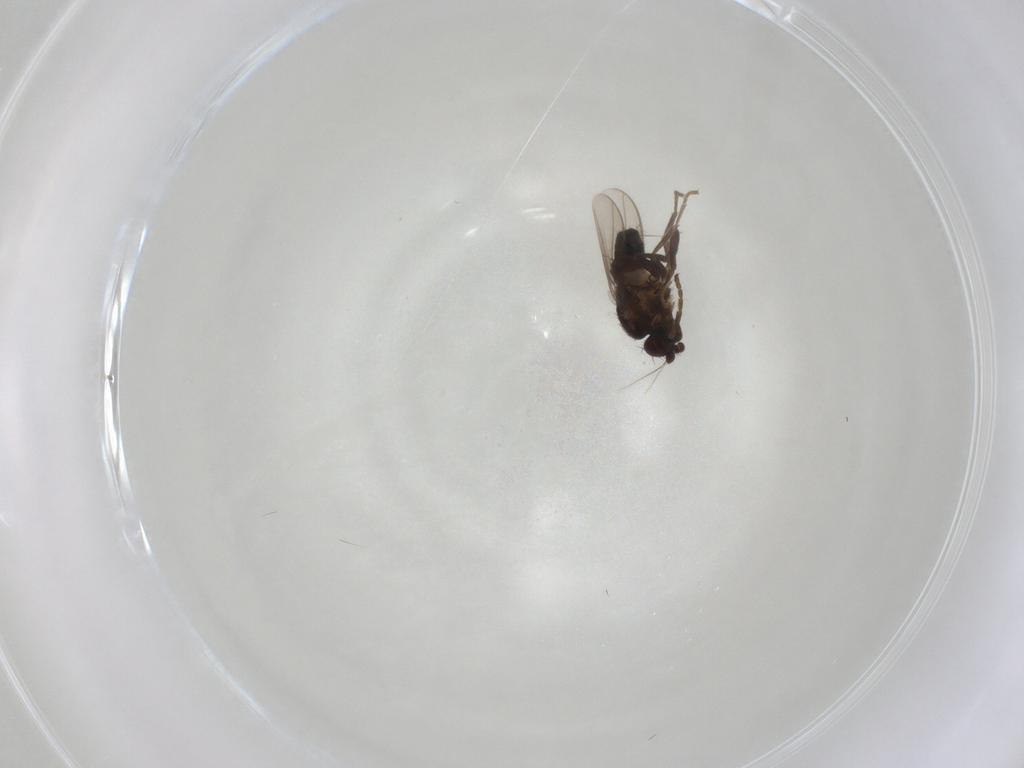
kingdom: Animalia
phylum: Arthropoda
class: Insecta
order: Diptera
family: Sphaeroceridae
